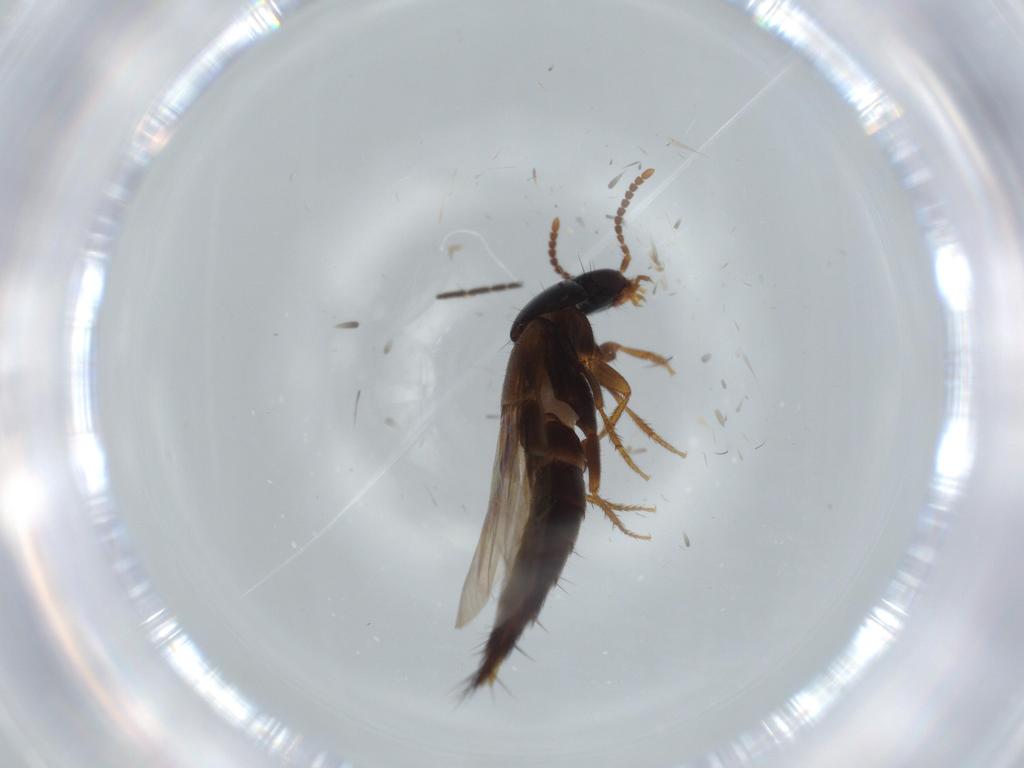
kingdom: Animalia
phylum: Arthropoda
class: Insecta
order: Coleoptera
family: Staphylinidae
